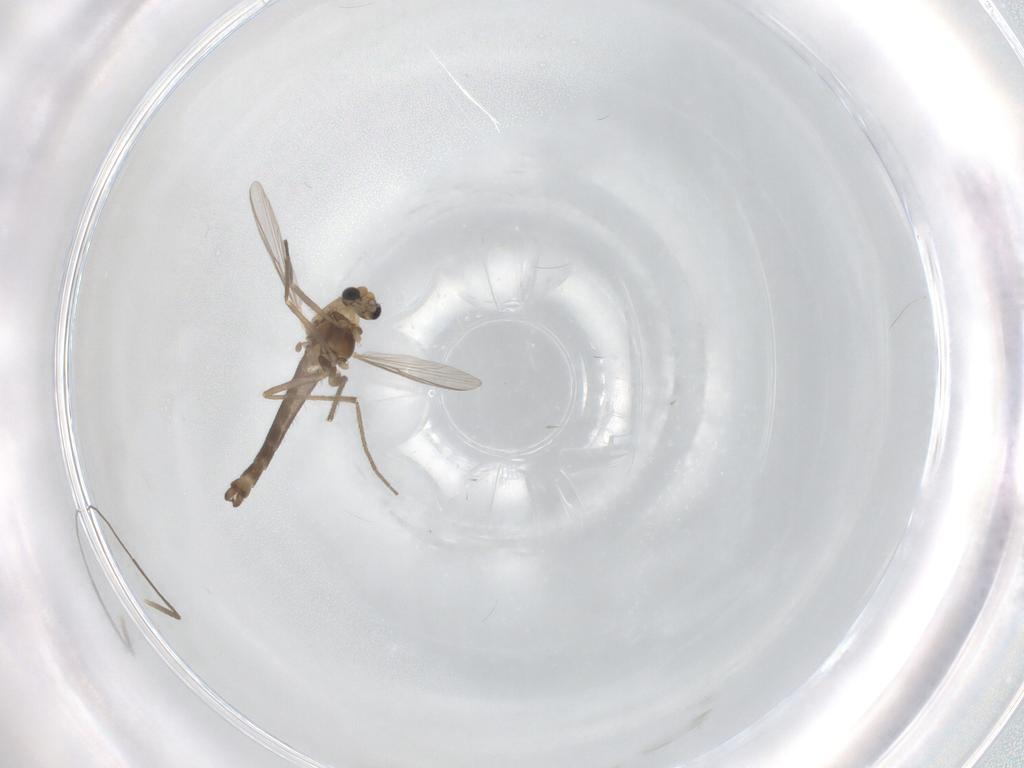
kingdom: Animalia
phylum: Arthropoda
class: Insecta
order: Diptera
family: Chironomidae
